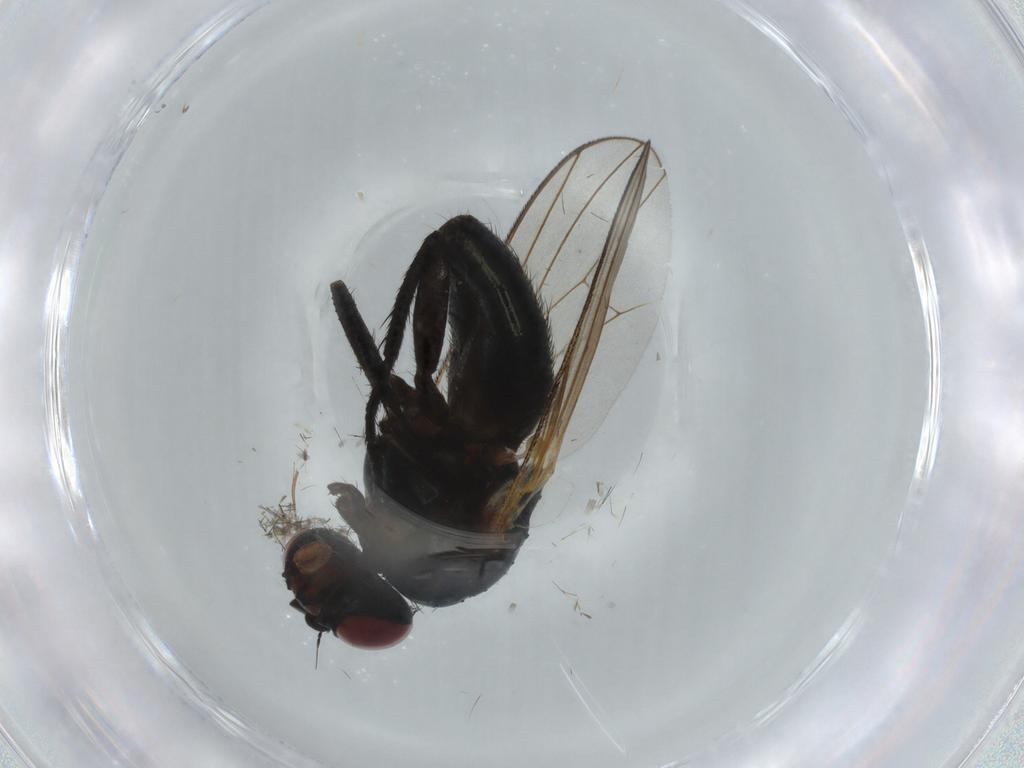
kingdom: Animalia
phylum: Arthropoda
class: Insecta
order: Diptera
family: Fannia
